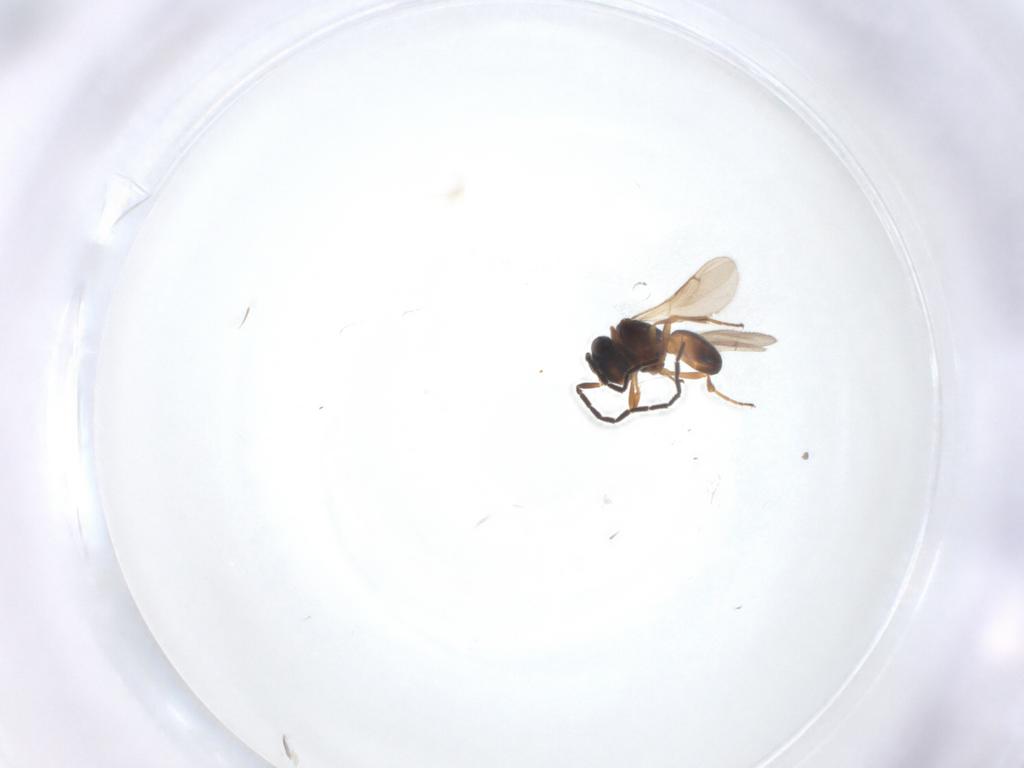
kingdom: Animalia
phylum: Arthropoda
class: Insecta
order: Hymenoptera
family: Scelionidae
